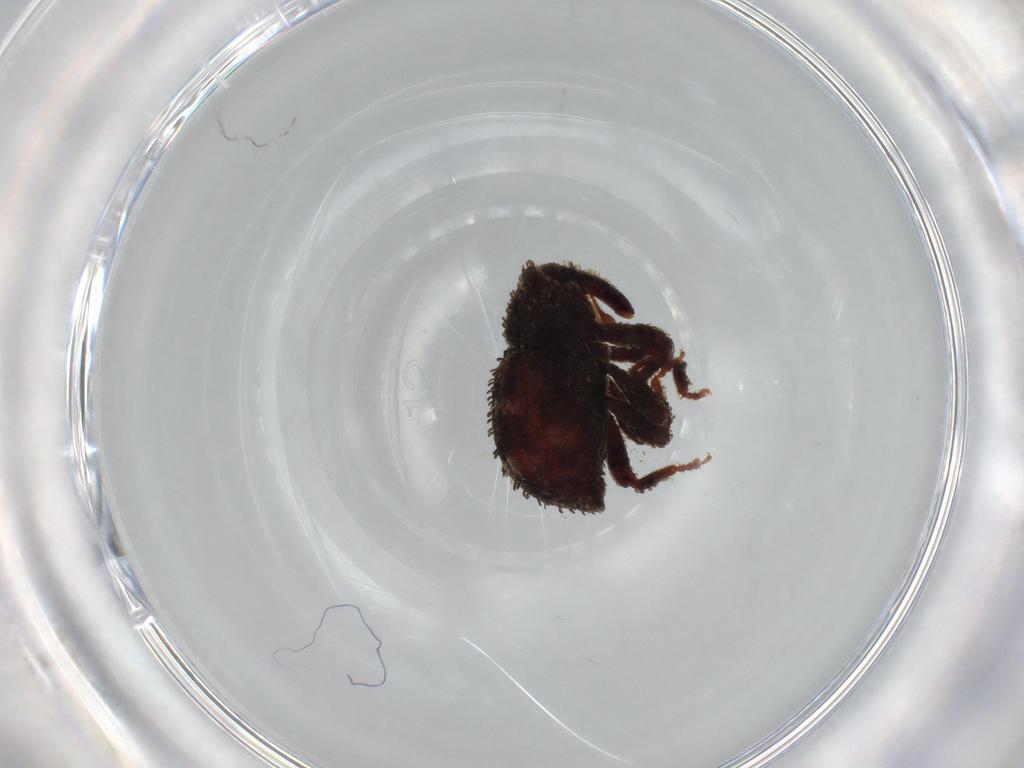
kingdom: Animalia
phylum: Arthropoda
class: Insecta
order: Coleoptera
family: Curculionidae
